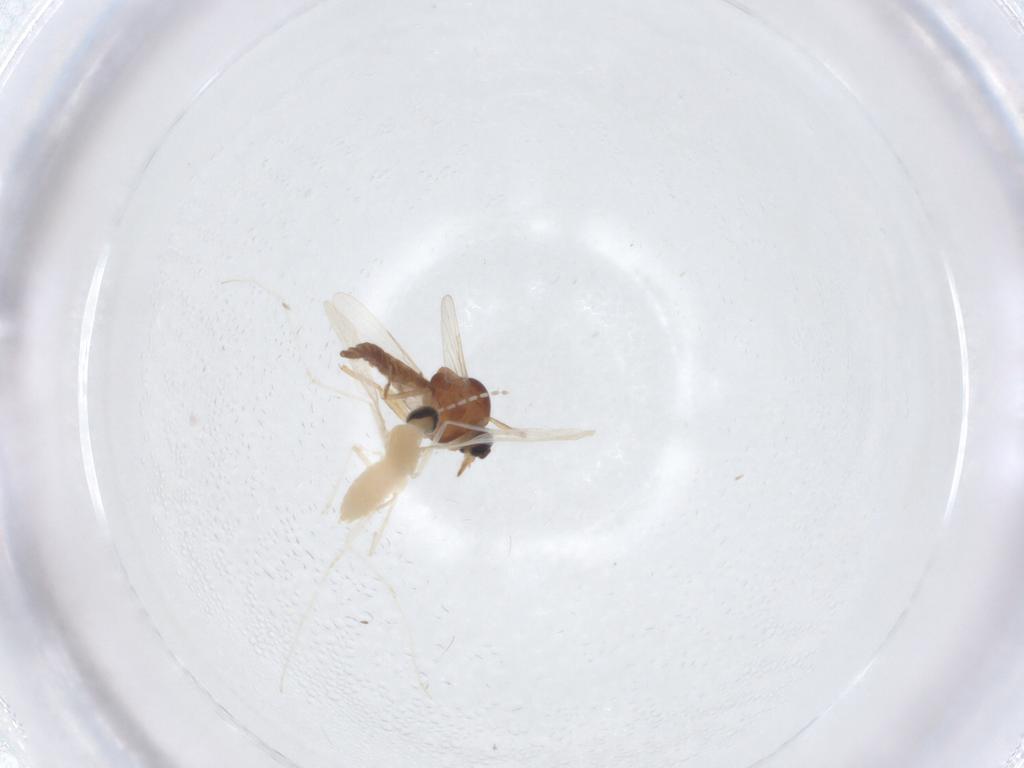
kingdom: Animalia
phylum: Arthropoda
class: Insecta
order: Diptera
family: Ceratopogonidae
